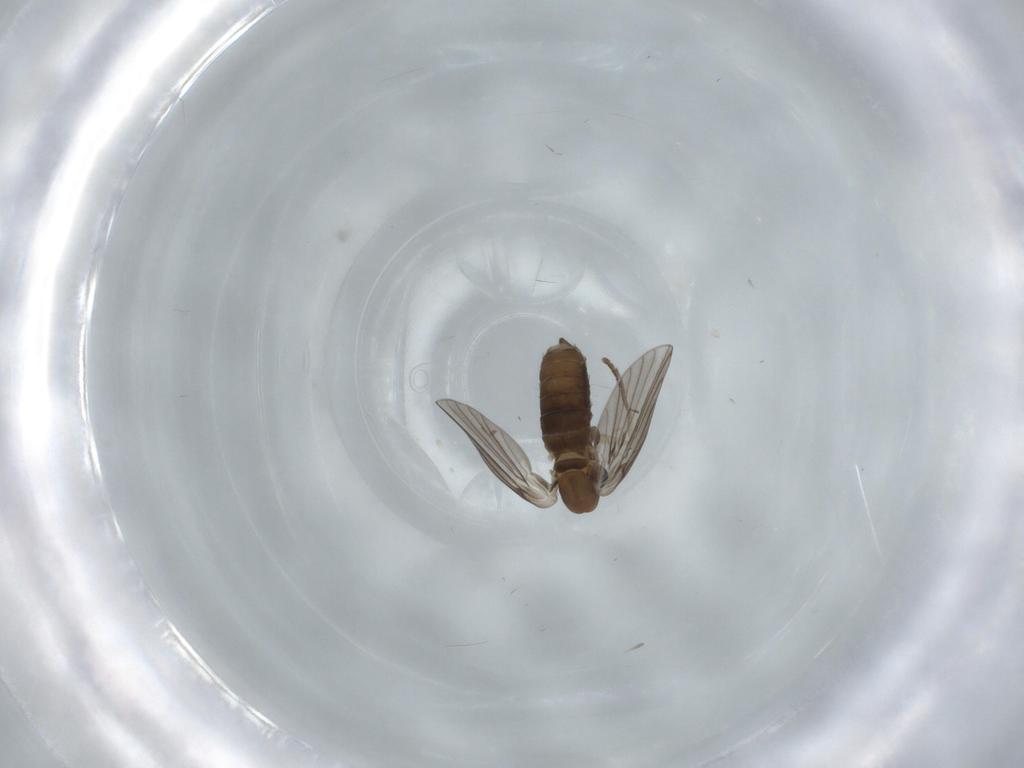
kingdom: Animalia
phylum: Arthropoda
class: Insecta
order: Diptera
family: Psychodidae
